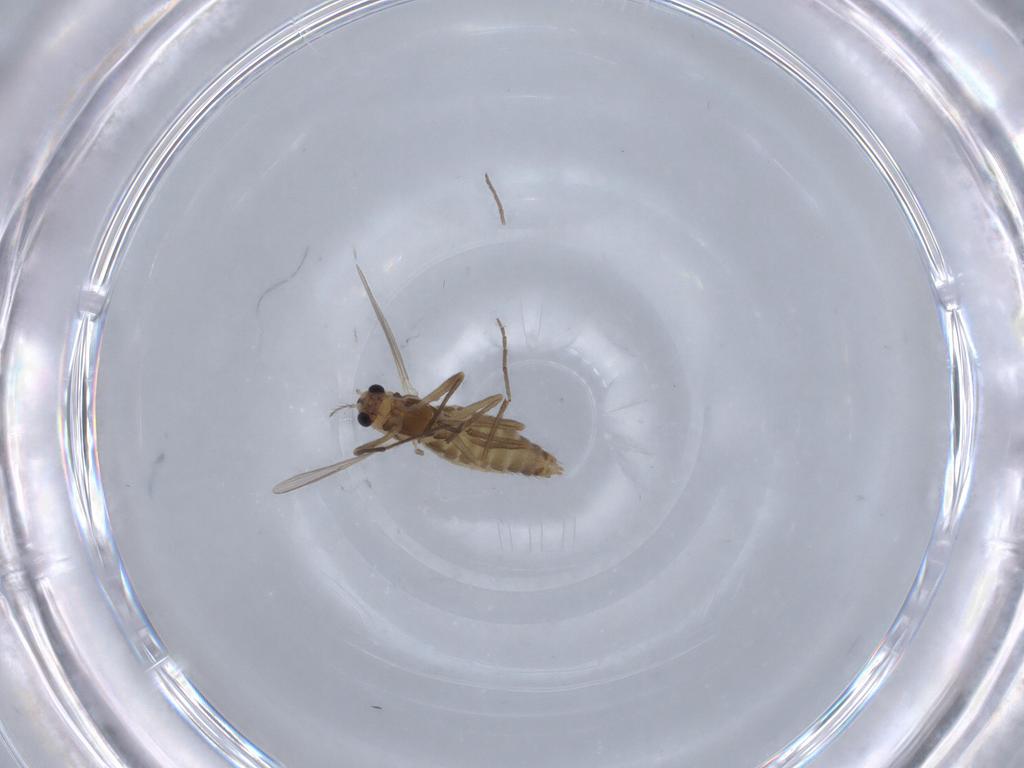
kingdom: Animalia
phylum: Arthropoda
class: Insecta
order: Diptera
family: Chironomidae
